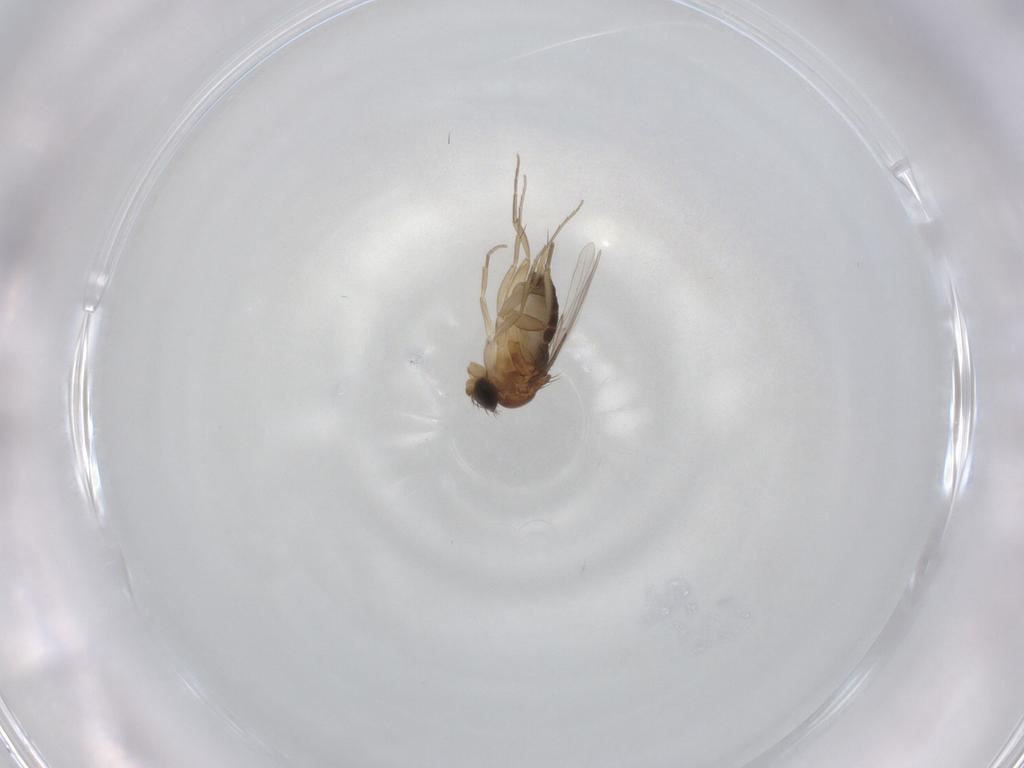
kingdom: Animalia
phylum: Arthropoda
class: Insecta
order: Diptera
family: Phoridae
